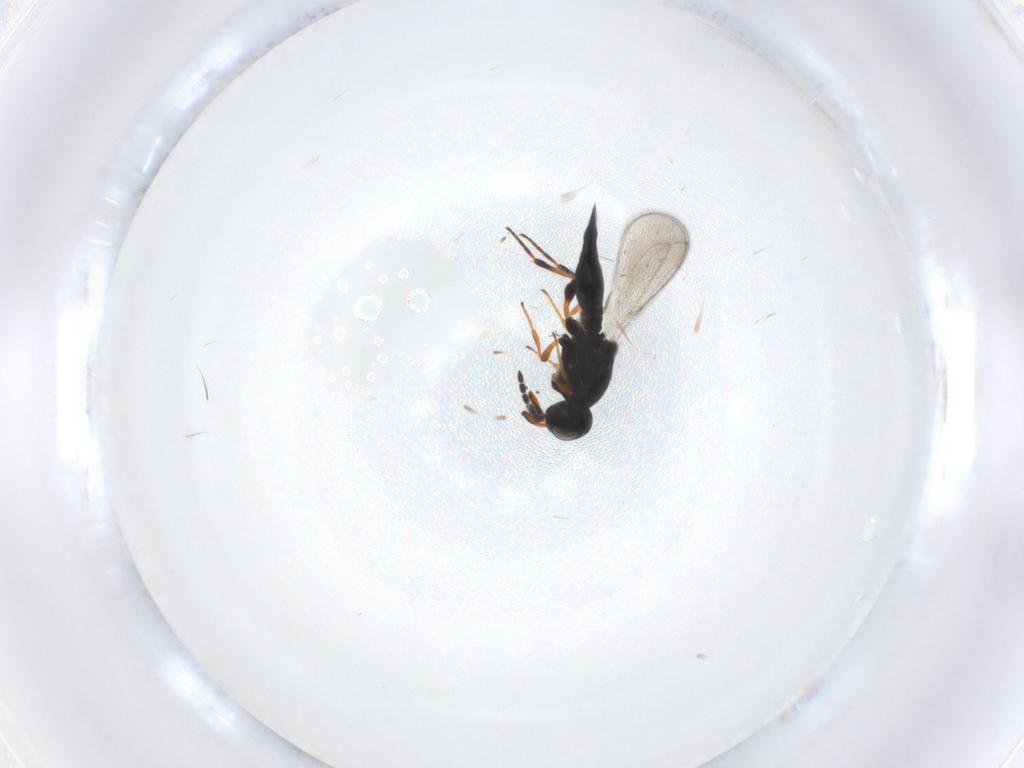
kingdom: Animalia
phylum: Arthropoda
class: Insecta
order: Hymenoptera
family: Platygastridae
